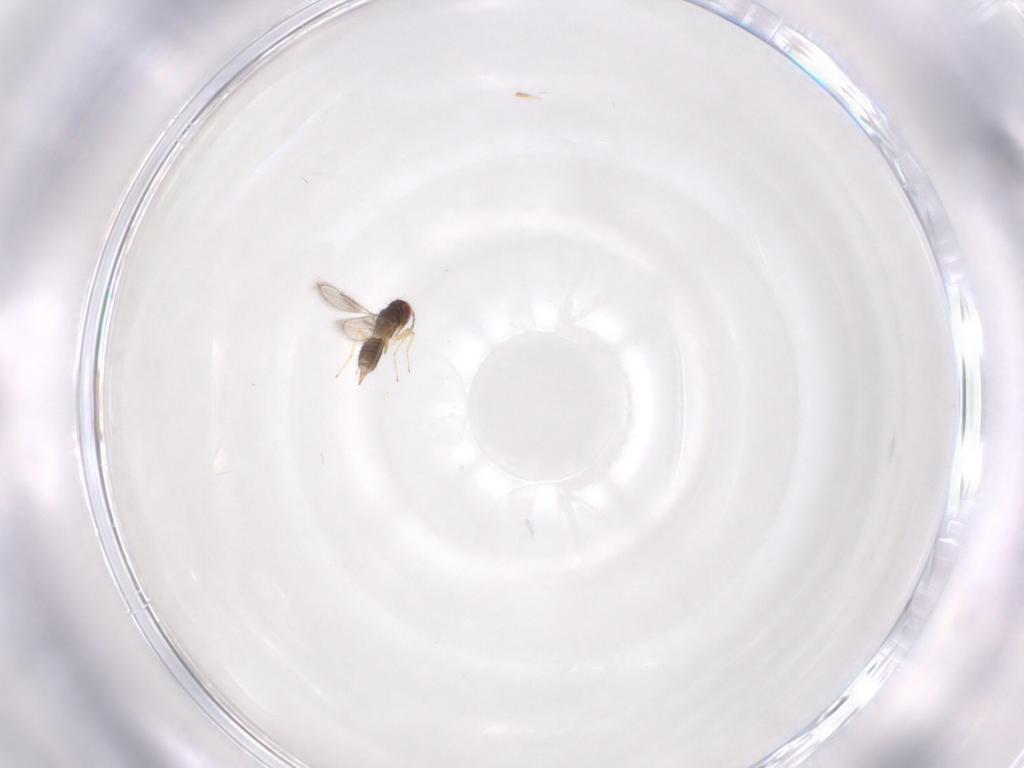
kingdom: Animalia
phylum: Arthropoda
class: Insecta
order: Hymenoptera
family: Eulophidae
